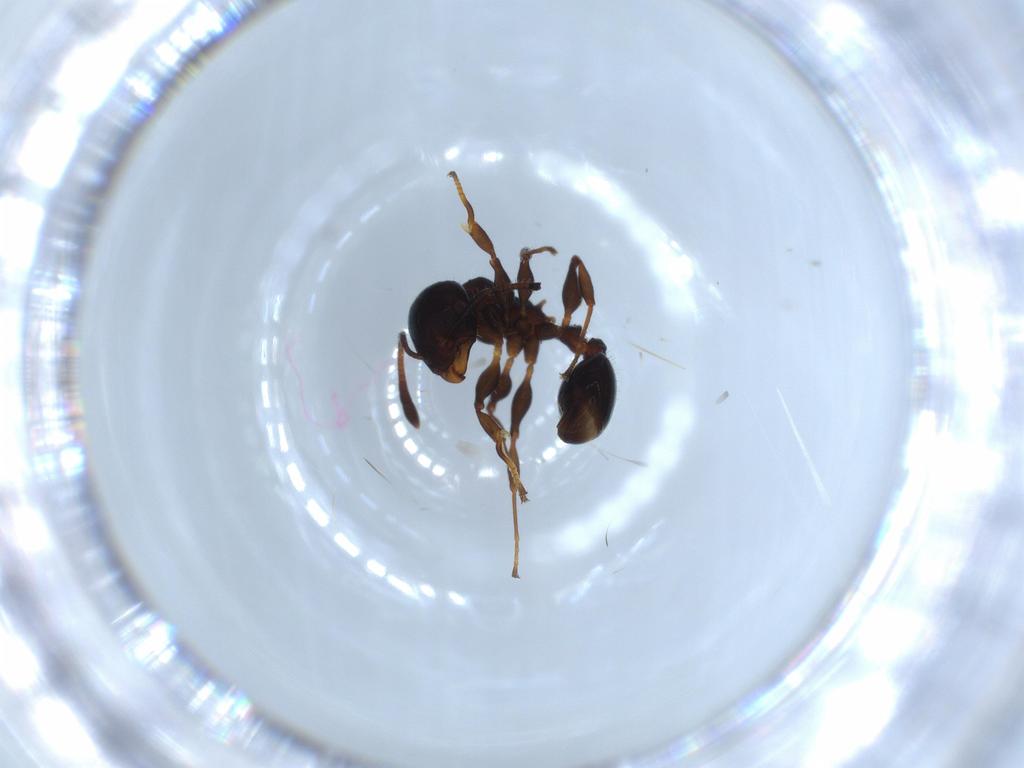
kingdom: Animalia
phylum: Arthropoda
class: Insecta
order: Hymenoptera
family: Formicidae
